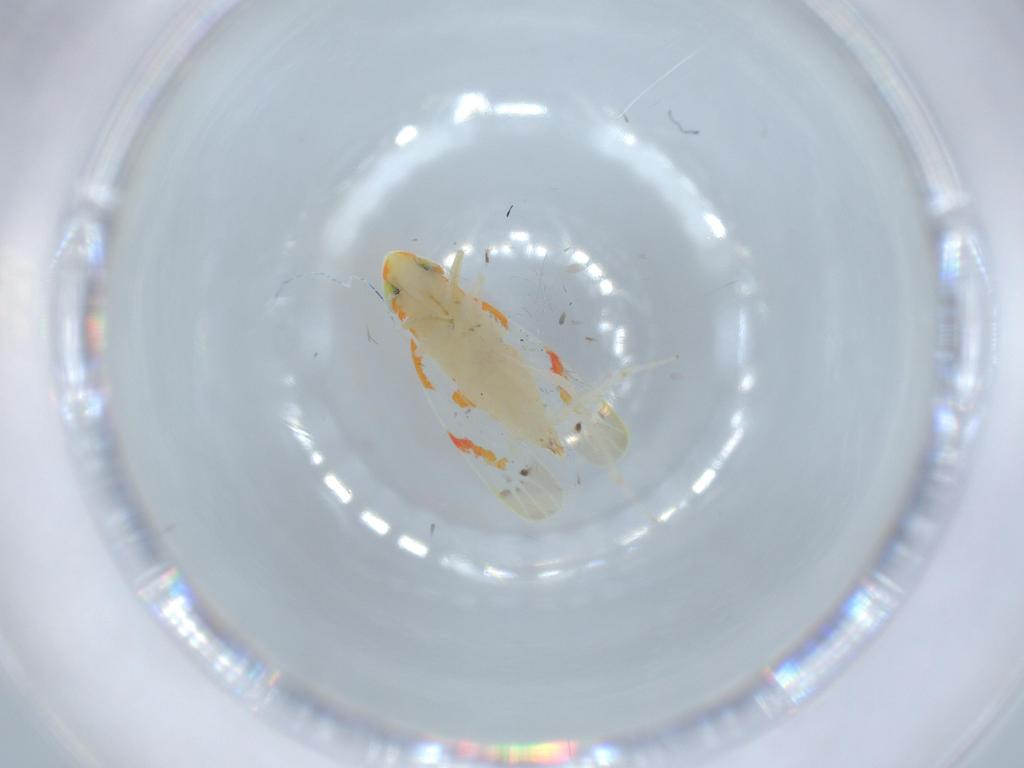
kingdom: Animalia
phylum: Arthropoda
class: Insecta
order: Hemiptera
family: Cicadellidae
